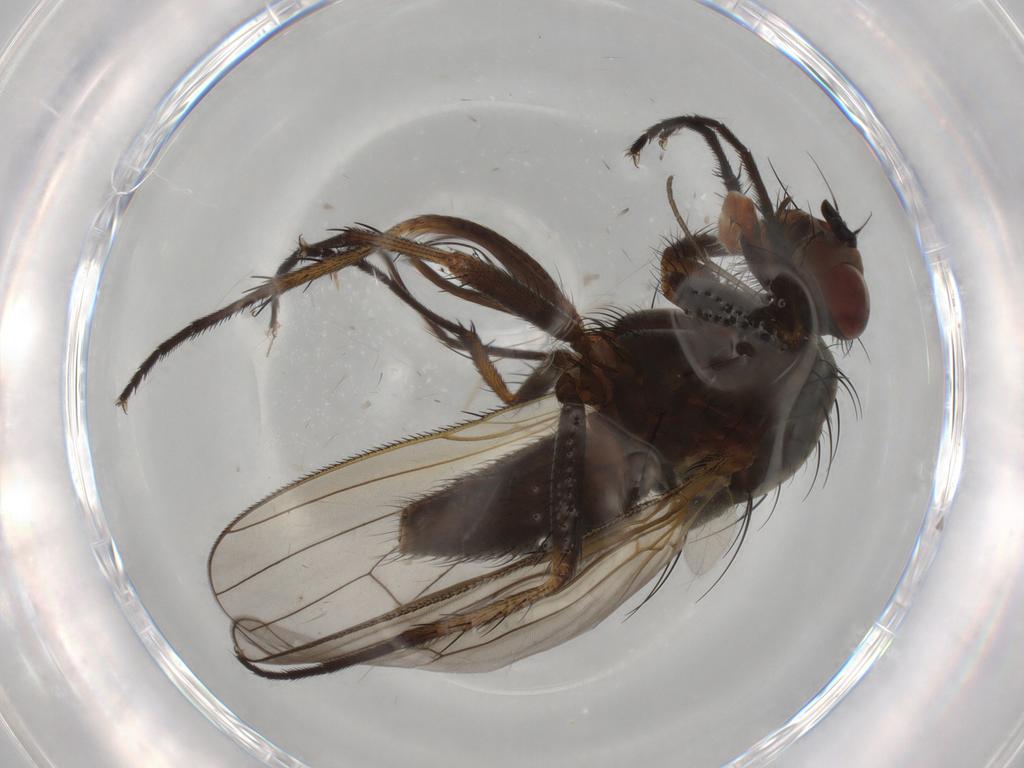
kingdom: Animalia
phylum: Arthropoda
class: Insecta
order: Diptera
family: Anthomyiidae
